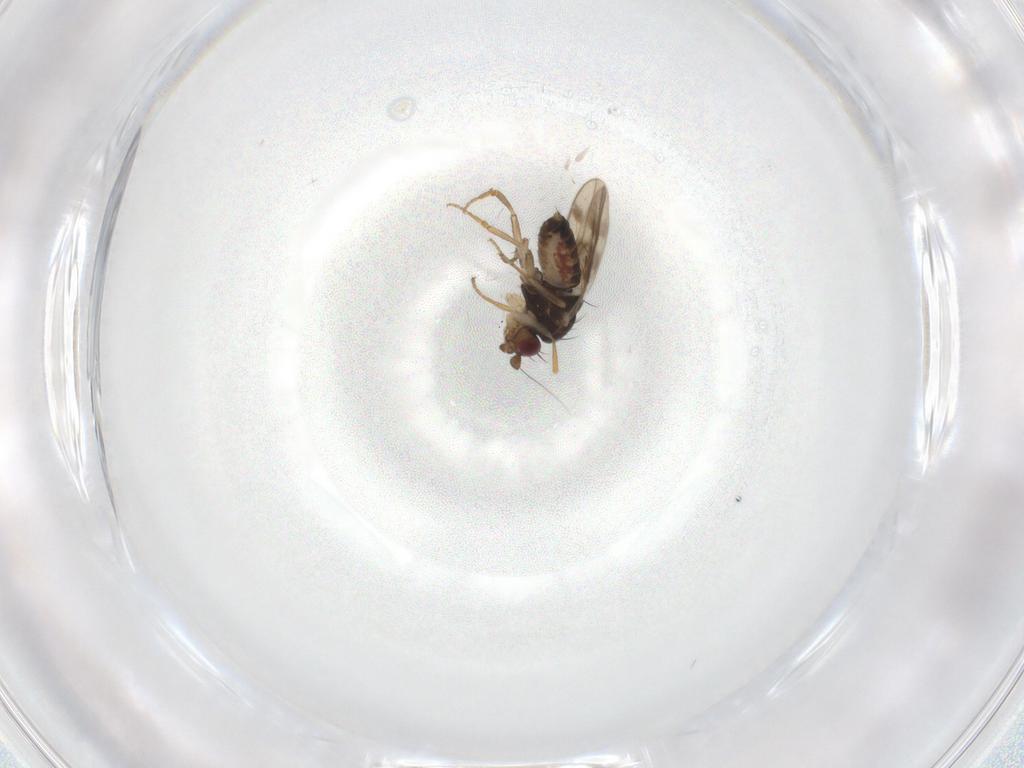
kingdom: Animalia
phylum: Arthropoda
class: Insecta
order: Diptera
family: Sphaeroceridae
